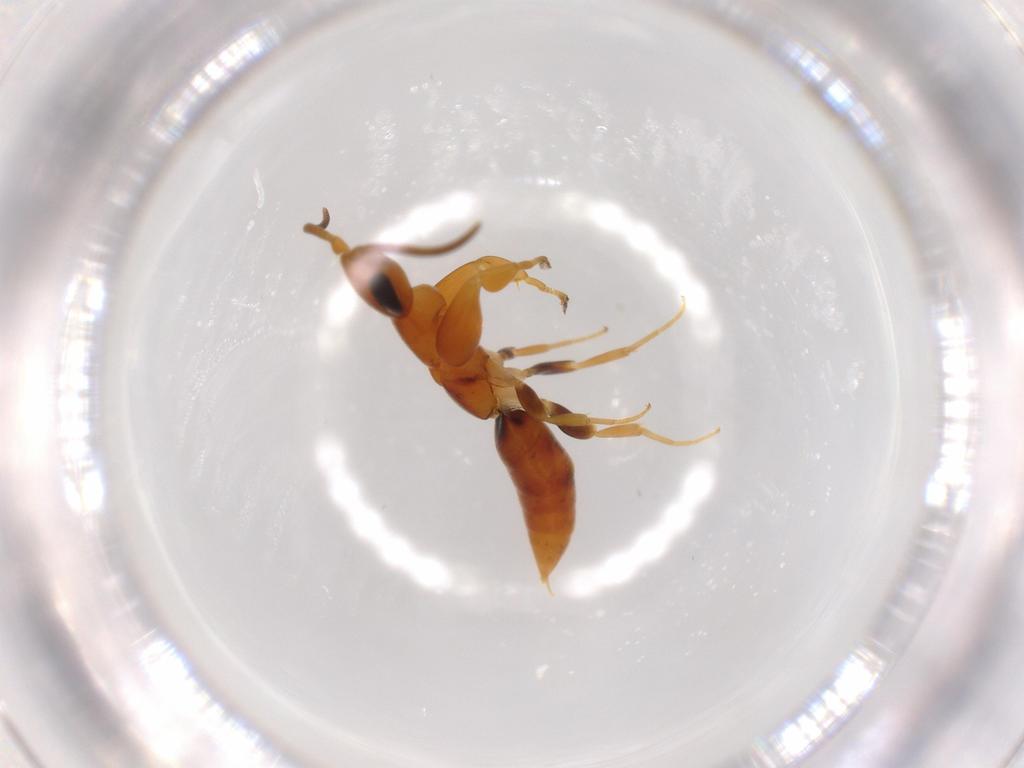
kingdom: Animalia
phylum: Arthropoda
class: Insecta
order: Hymenoptera
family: Sclerogibbidae
